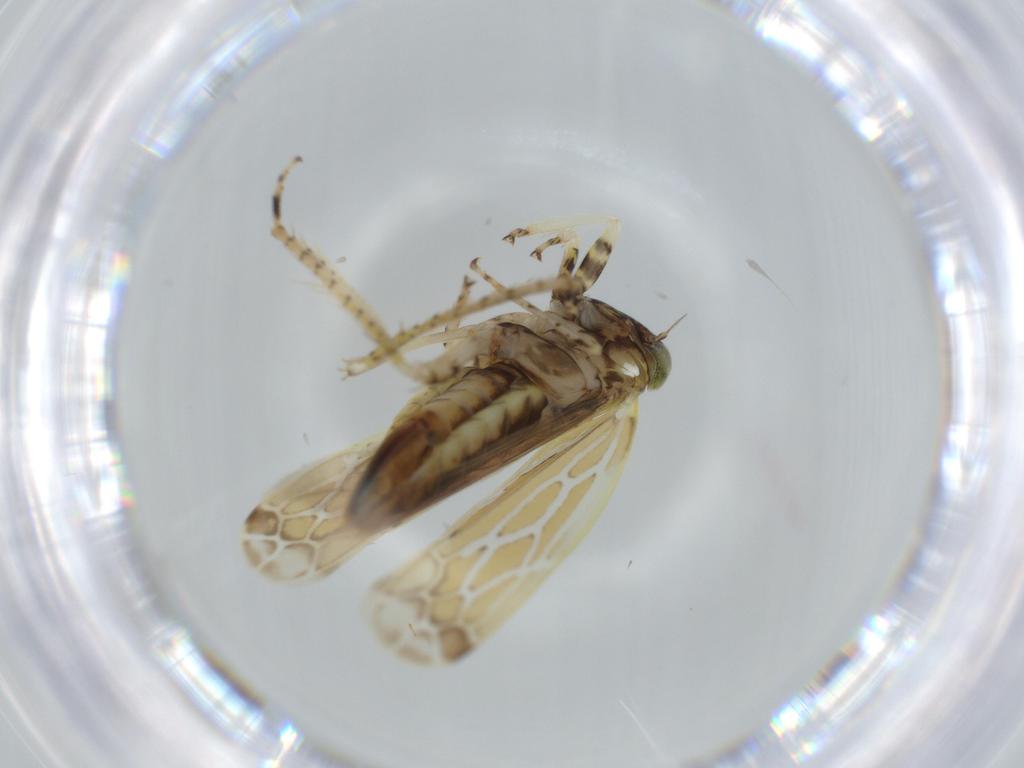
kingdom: Animalia
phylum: Arthropoda
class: Insecta
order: Hemiptera
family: Cicadellidae
